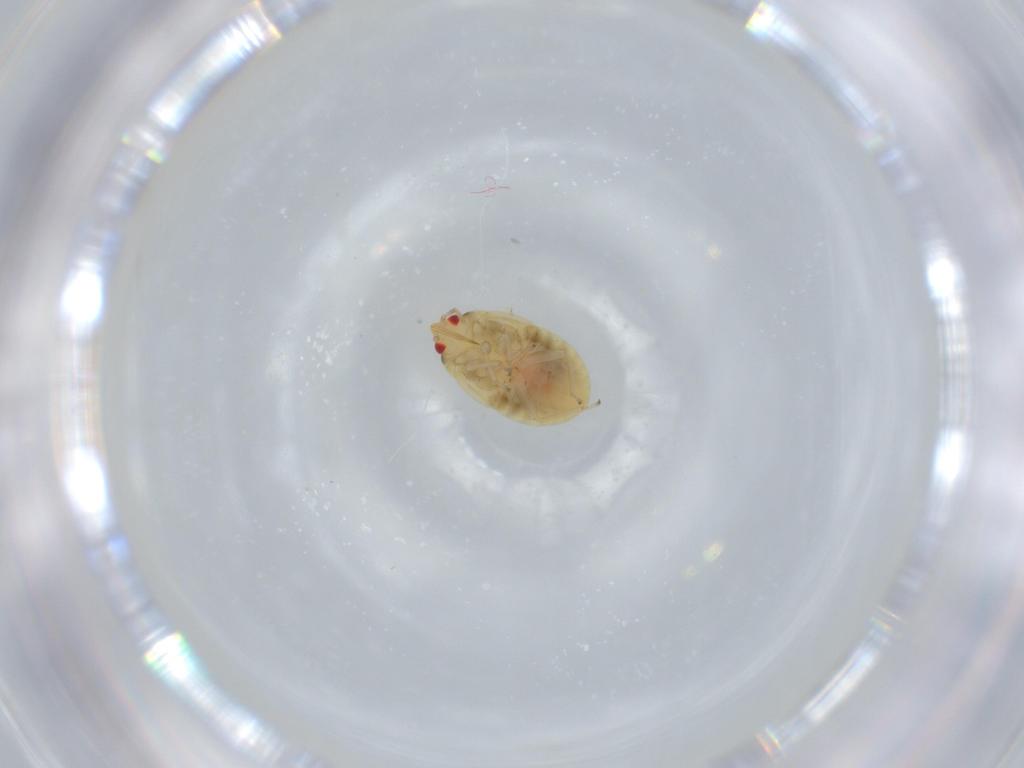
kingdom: Animalia
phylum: Arthropoda
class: Insecta
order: Hemiptera
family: Anthocoridae
